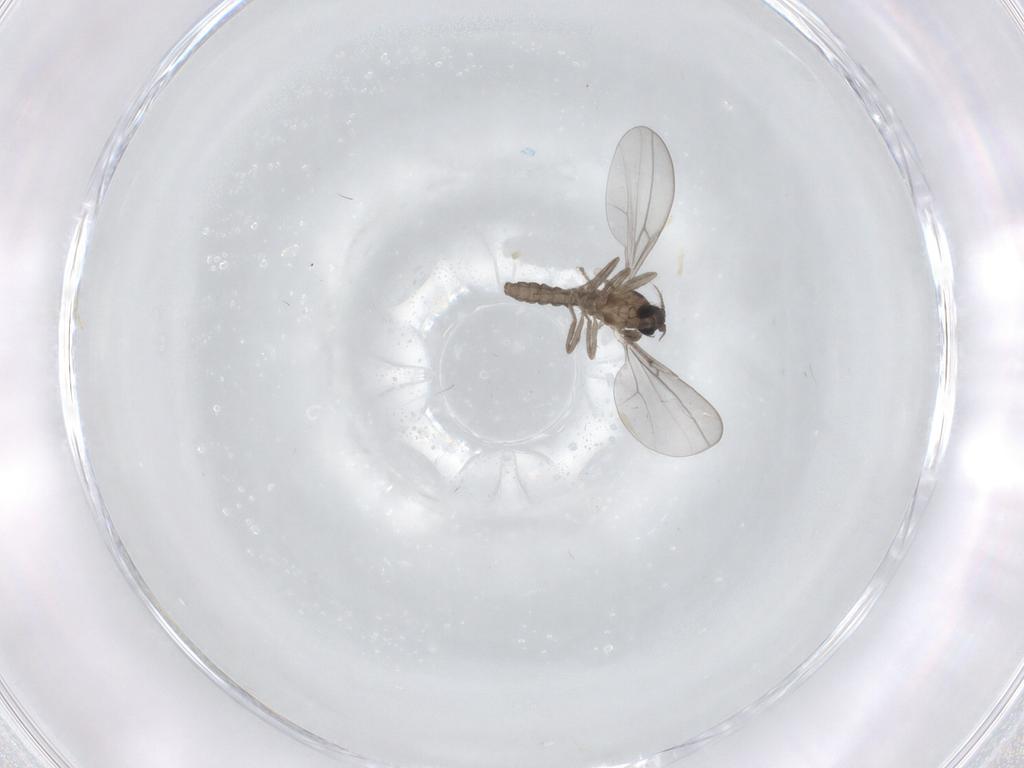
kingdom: Animalia
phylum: Arthropoda
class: Insecta
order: Diptera
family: Cecidomyiidae
